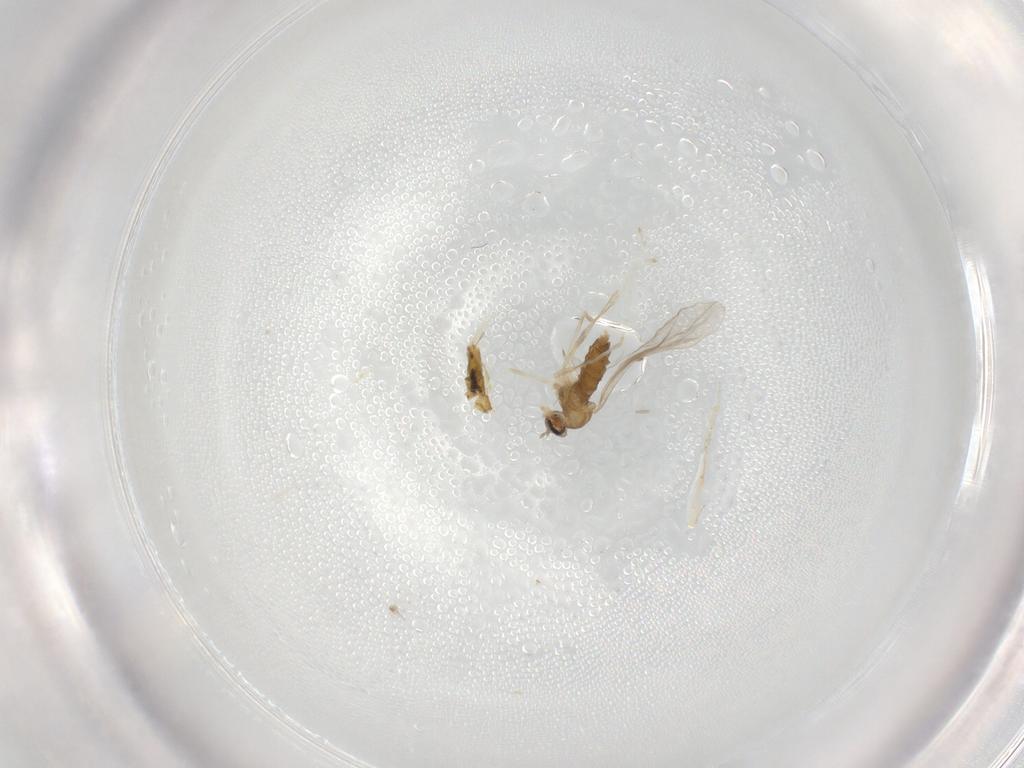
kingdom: Animalia
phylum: Arthropoda
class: Insecta
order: Diptera
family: Cecidomyiidae
